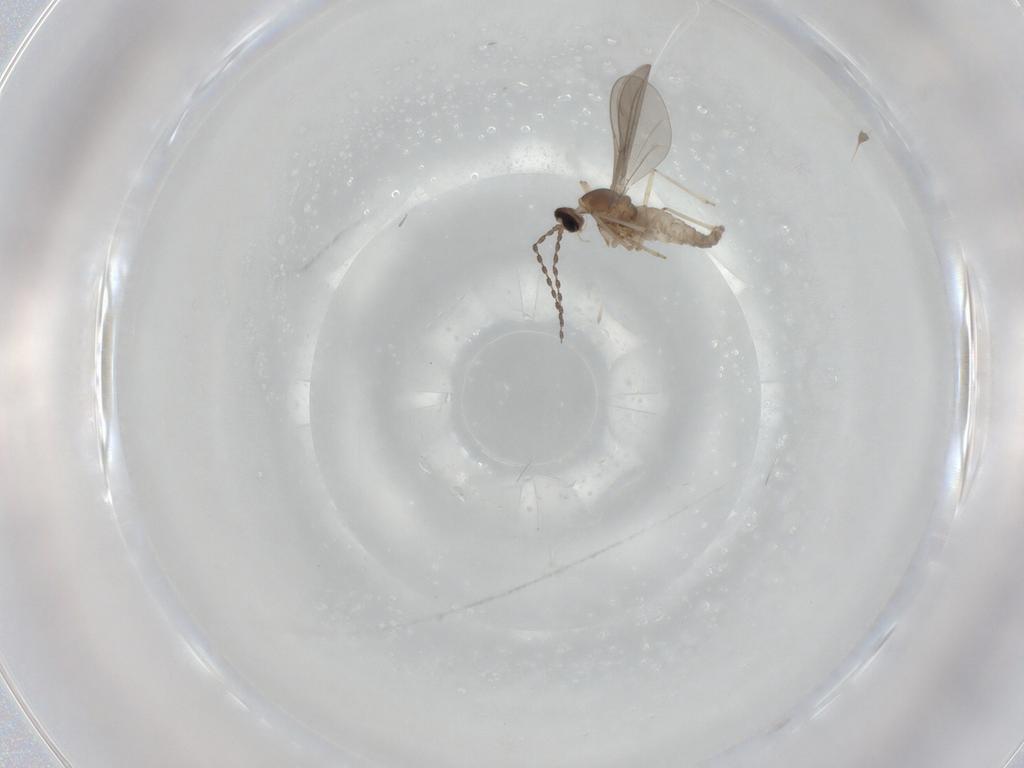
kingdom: Animalia
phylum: Arthropoda
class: Insecta
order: Diptera
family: Cecidomyiidae
